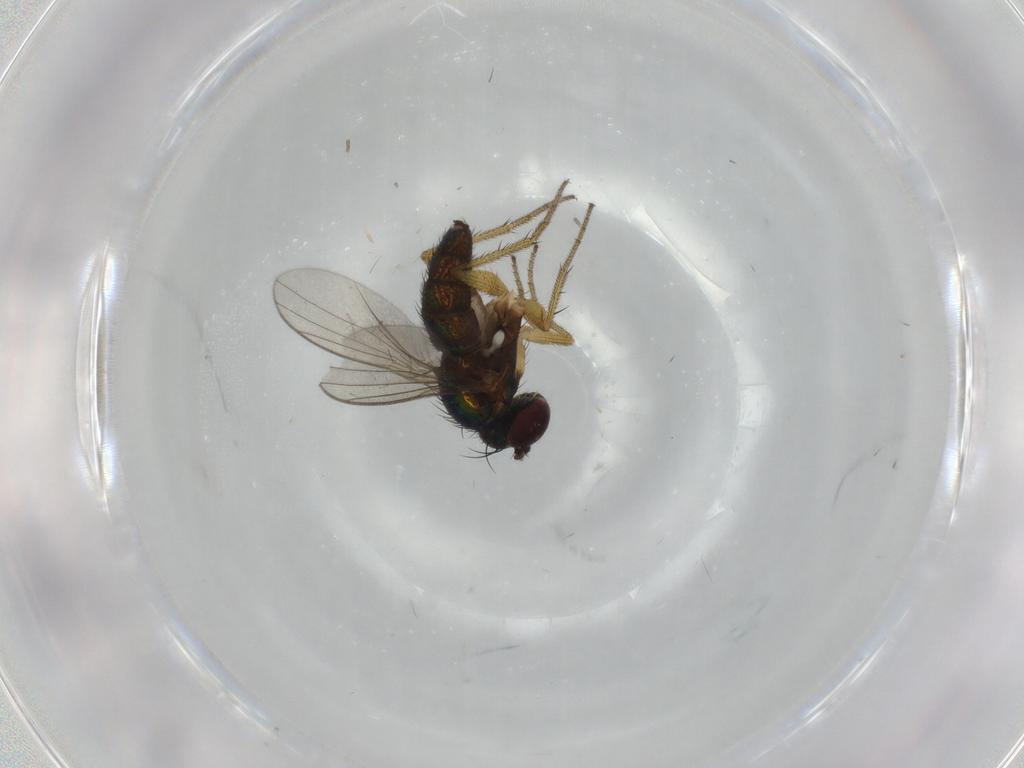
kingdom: Animalia
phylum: Arthropoda
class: Insecta
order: Diptera
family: Dolichopodidae
